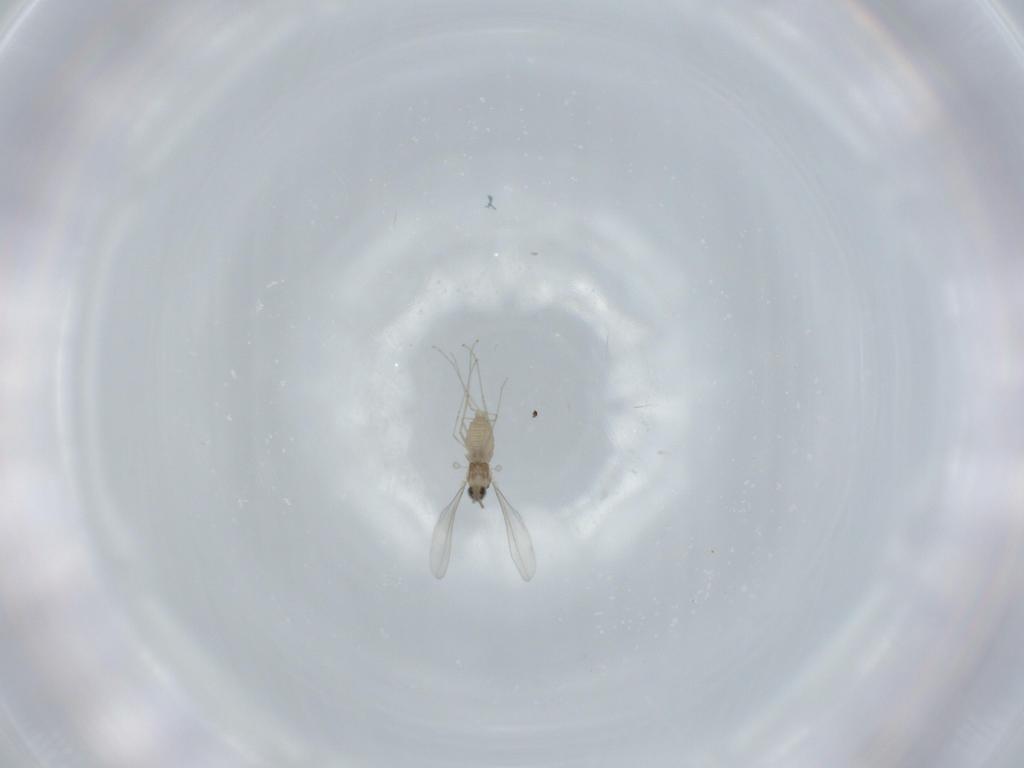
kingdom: Animalia
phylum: Arthropoda
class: Insecta
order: Diptera
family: Cecidomyiidae
